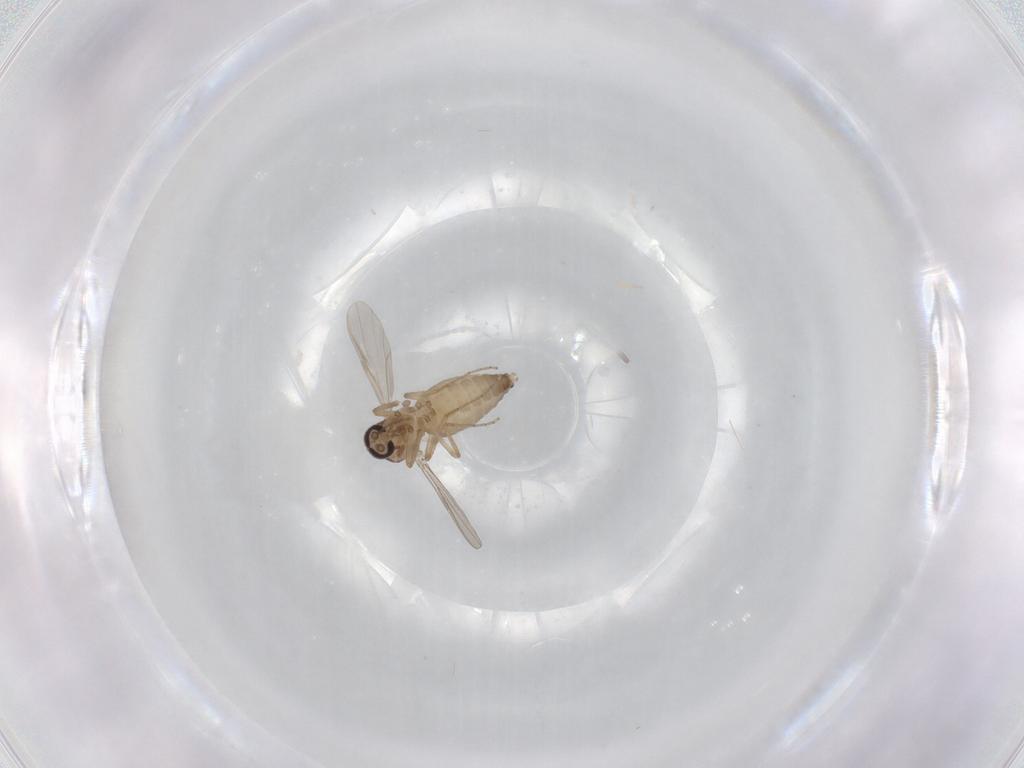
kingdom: Animalia
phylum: Arthropoda
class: Insecta
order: Diptera
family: Ceratopogonidae
